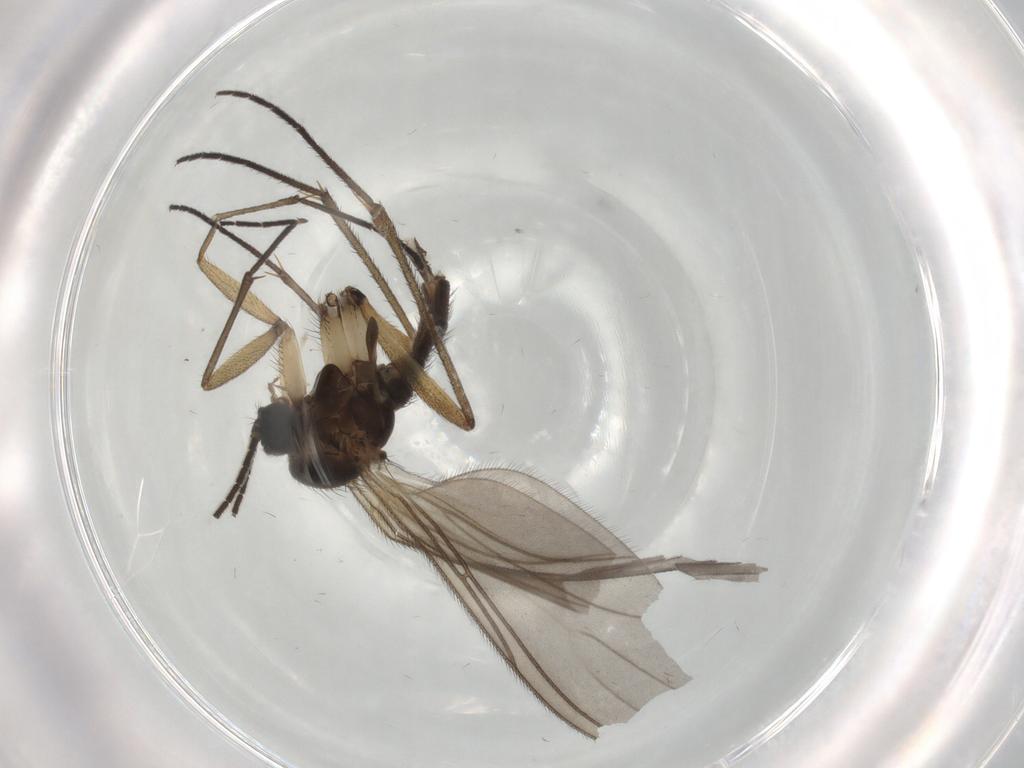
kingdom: Animalia
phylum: Arthropoda
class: Insecta
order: Diptera
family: Sciaridae
